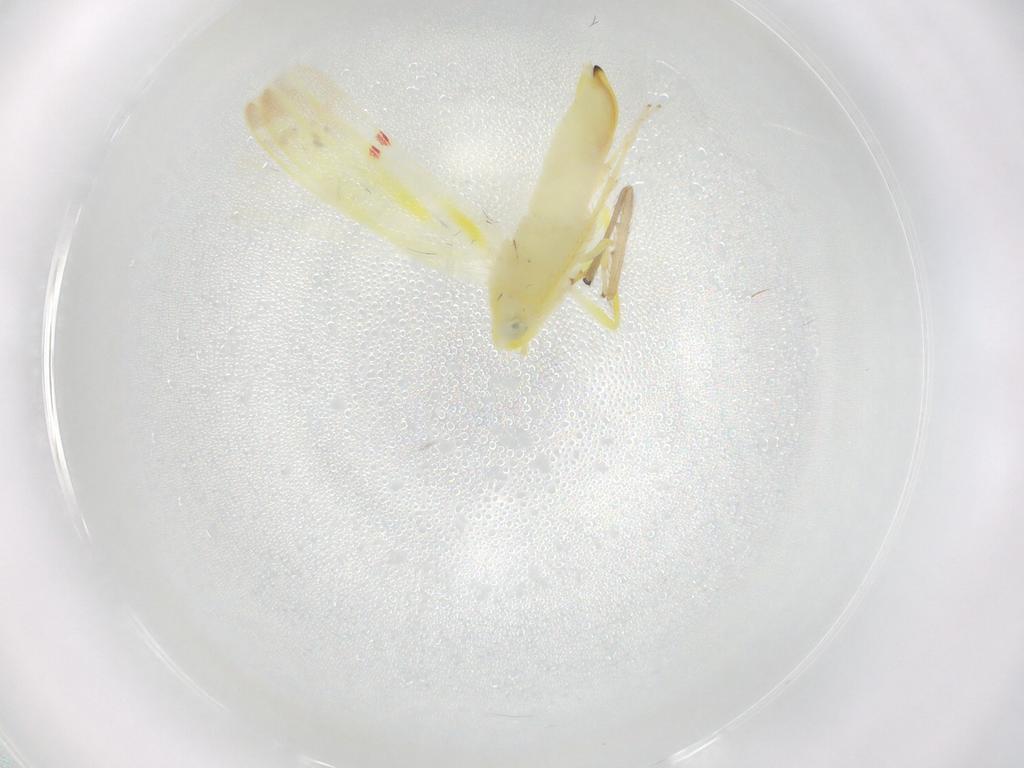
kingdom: Animalia
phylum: Arthropoda
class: Insecta
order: Hemiptera
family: Cicadellidae
